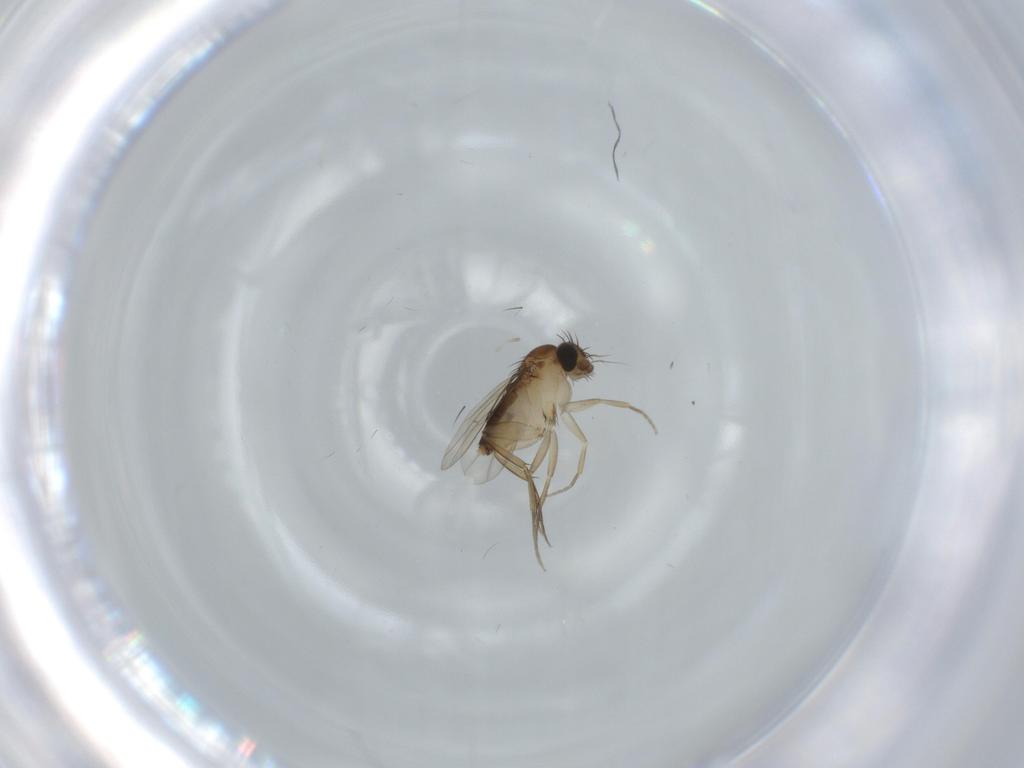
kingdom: Animalia
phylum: Arthropoda
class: Insecta
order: Diptera
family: Phoridae
